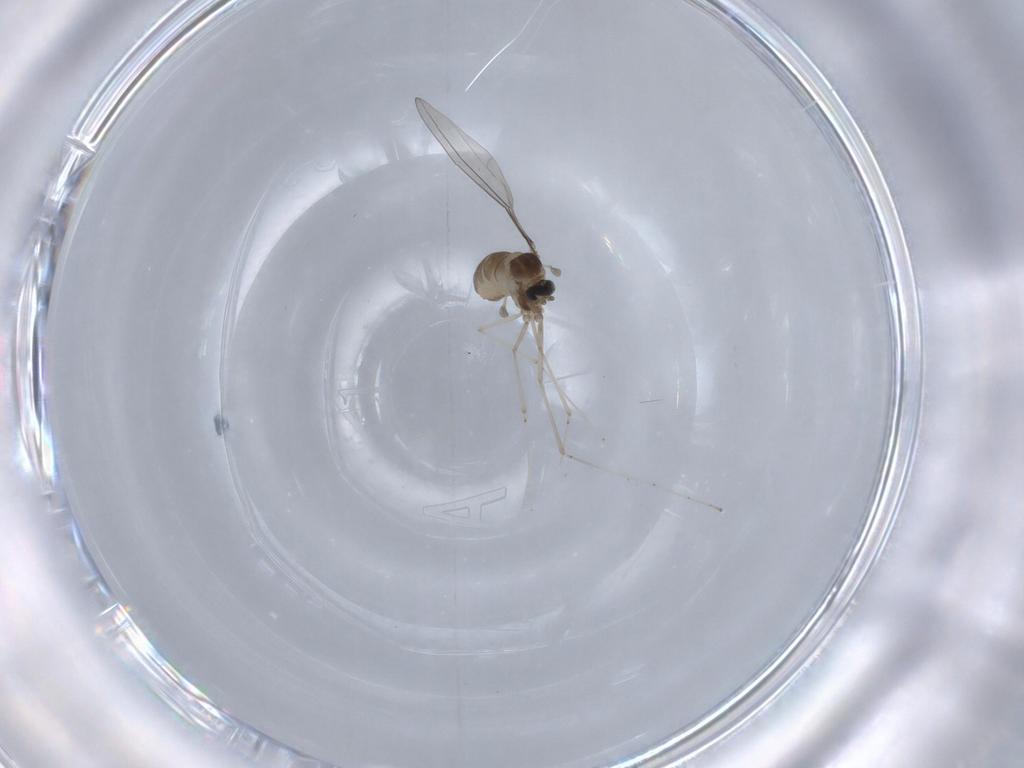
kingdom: Animalia
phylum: Arthropoda
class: Insecta
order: Diptera
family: Cecidomyiidae
